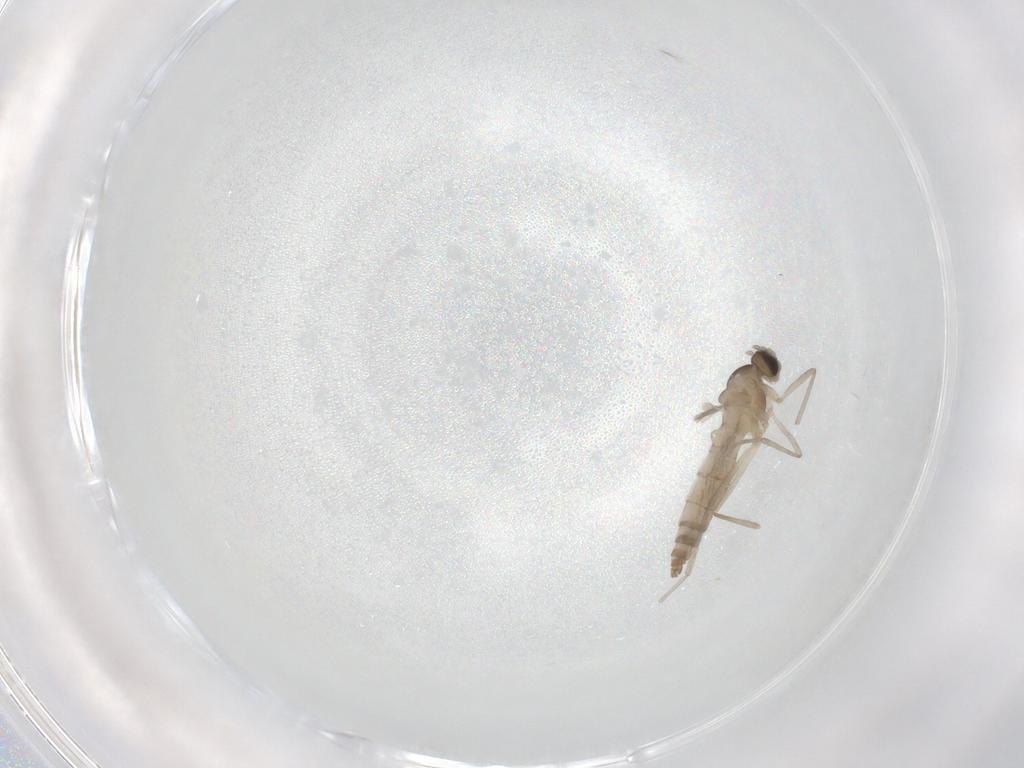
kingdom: Animalia
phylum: Arthropoda
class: Insecta
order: Diptera
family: Cecidomyiidae
